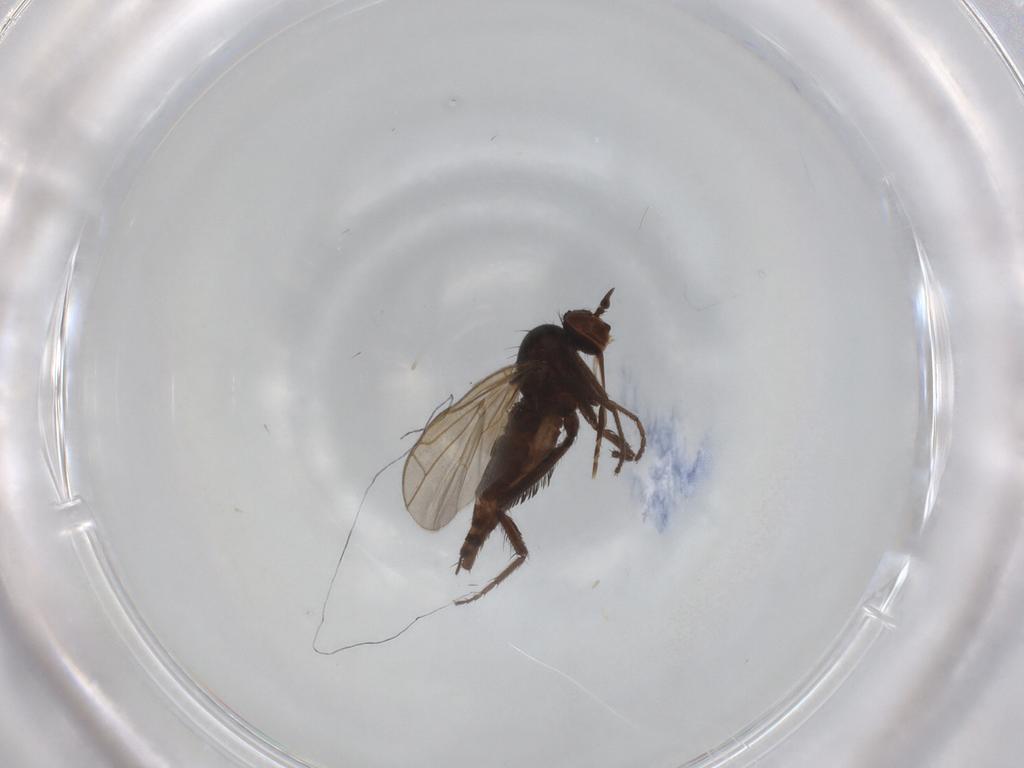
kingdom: Animalia
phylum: Arthropoda
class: Insecta
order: Diptera
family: Empididae
